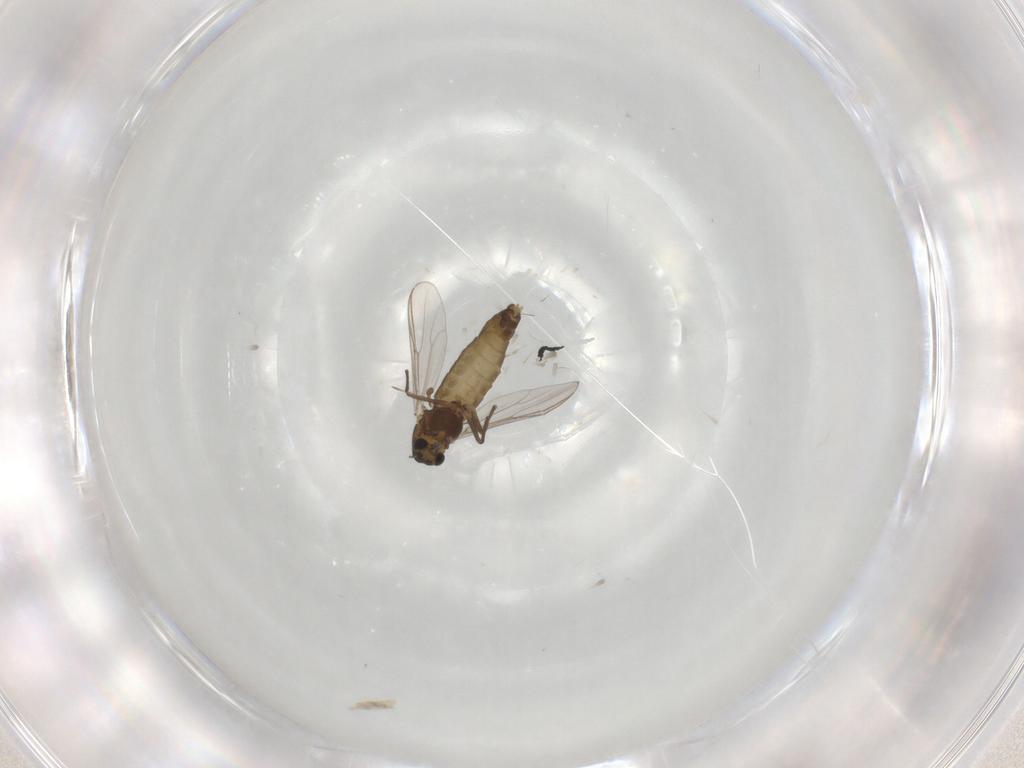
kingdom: Animalia
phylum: Arthropoda
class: Insecta
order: Diptera
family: Chironomidae
